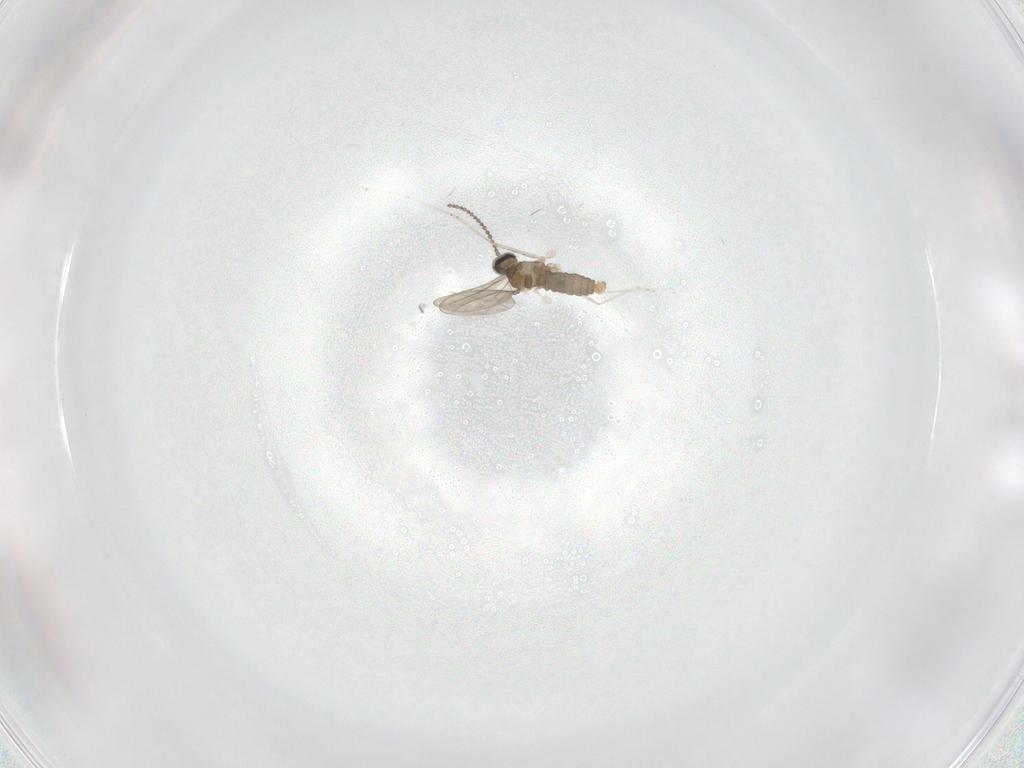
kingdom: Animalia
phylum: Arthropoda
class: Insecta
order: Diptera
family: Cecidomyiidae
